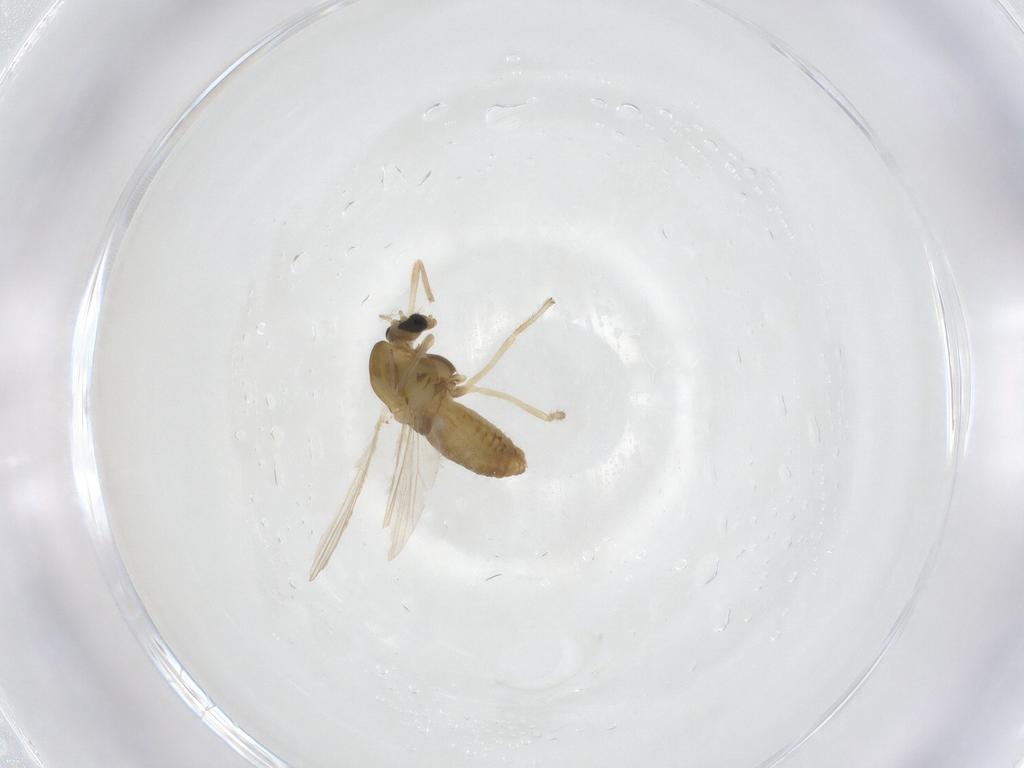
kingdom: Animalia
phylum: Arthropoda
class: Insecta
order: Diptera
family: Chironomidae
